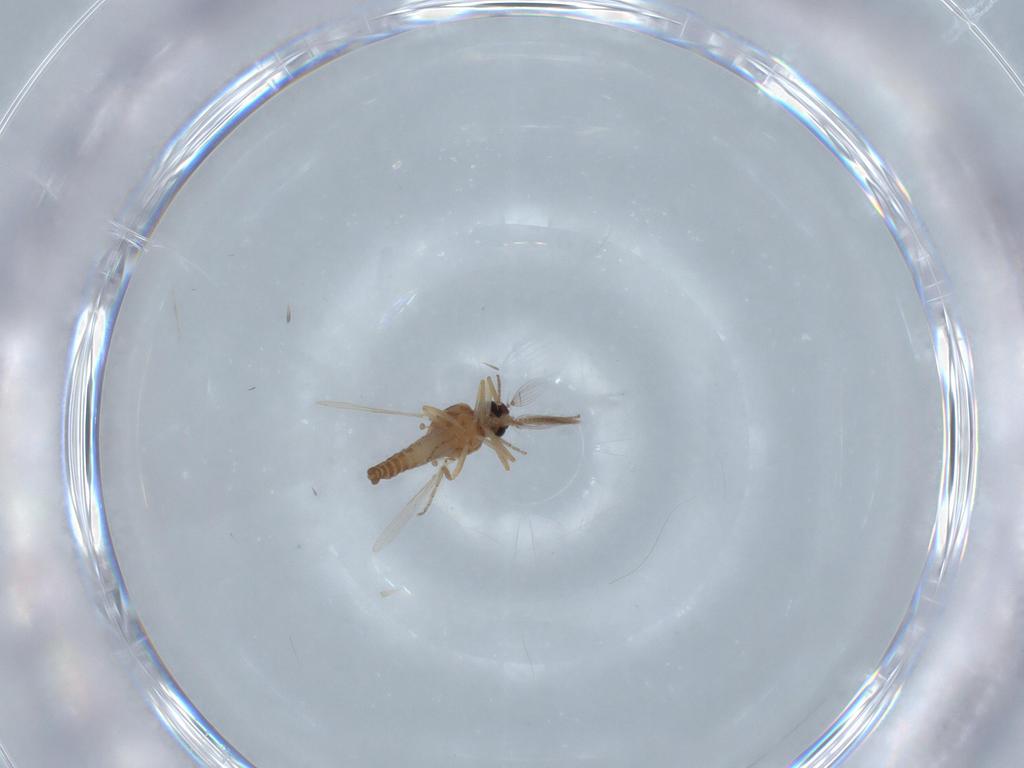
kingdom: Animalia
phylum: Arthropoda
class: Insecta
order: Diptera
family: Ceratopogonidae
